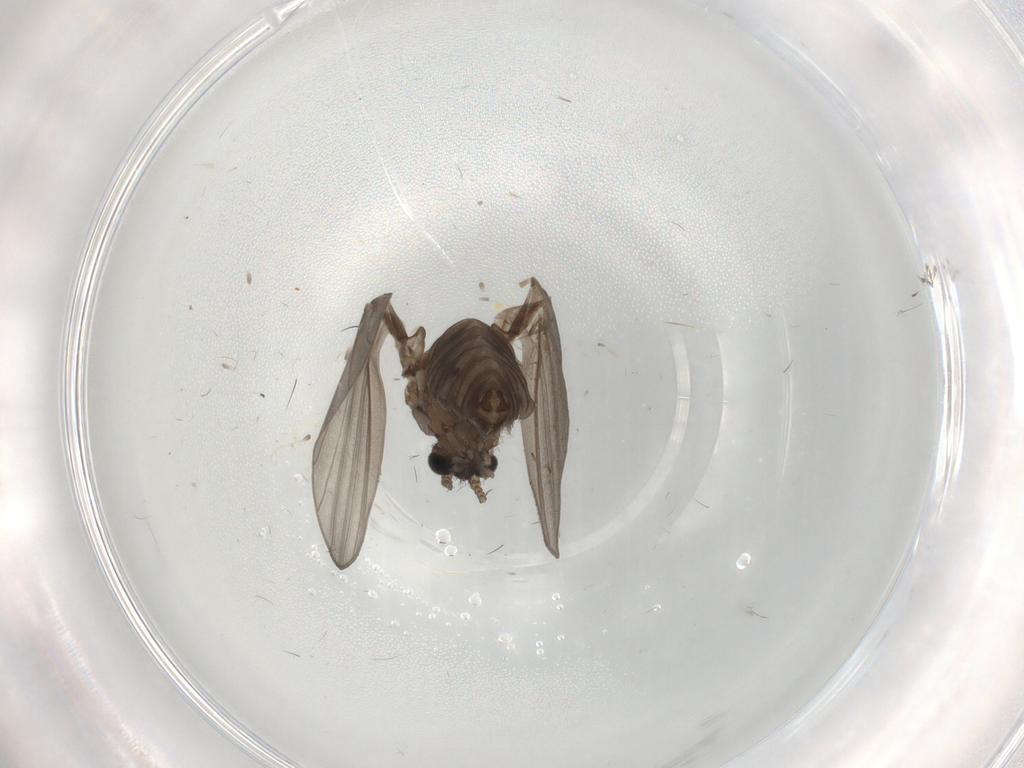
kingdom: Animalia
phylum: Arthropoda
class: Insecta
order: Diptera
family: Psychodidae
